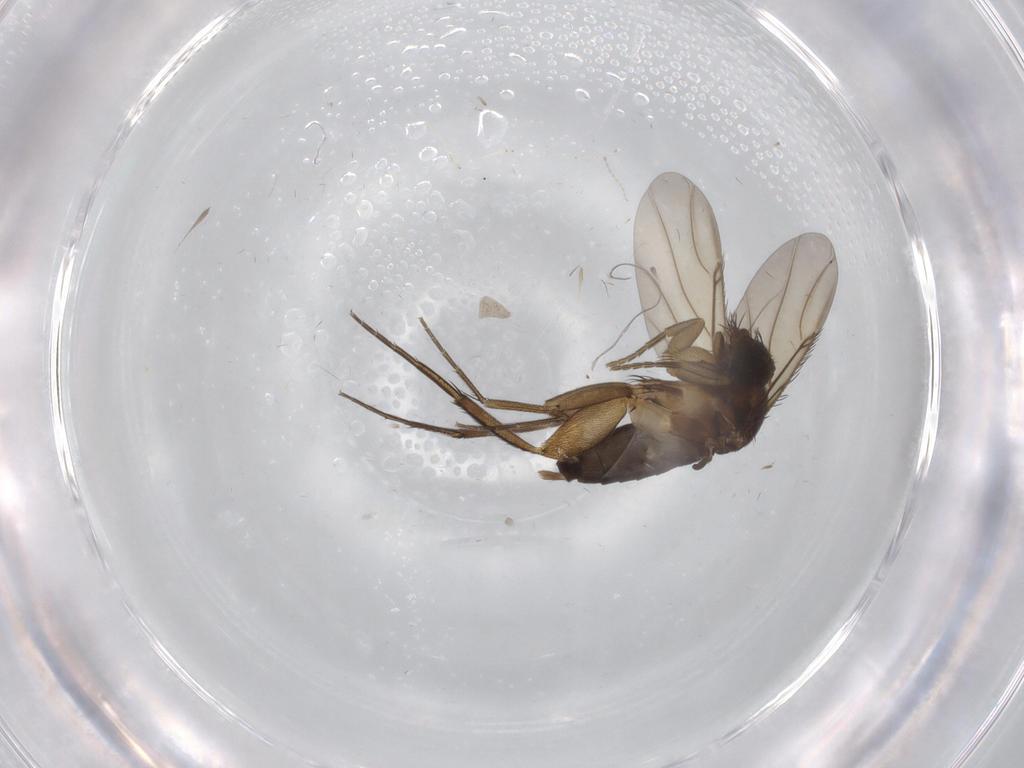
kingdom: Animalia
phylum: Arthropoda
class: Insecta
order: Diptera
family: Phoridae
